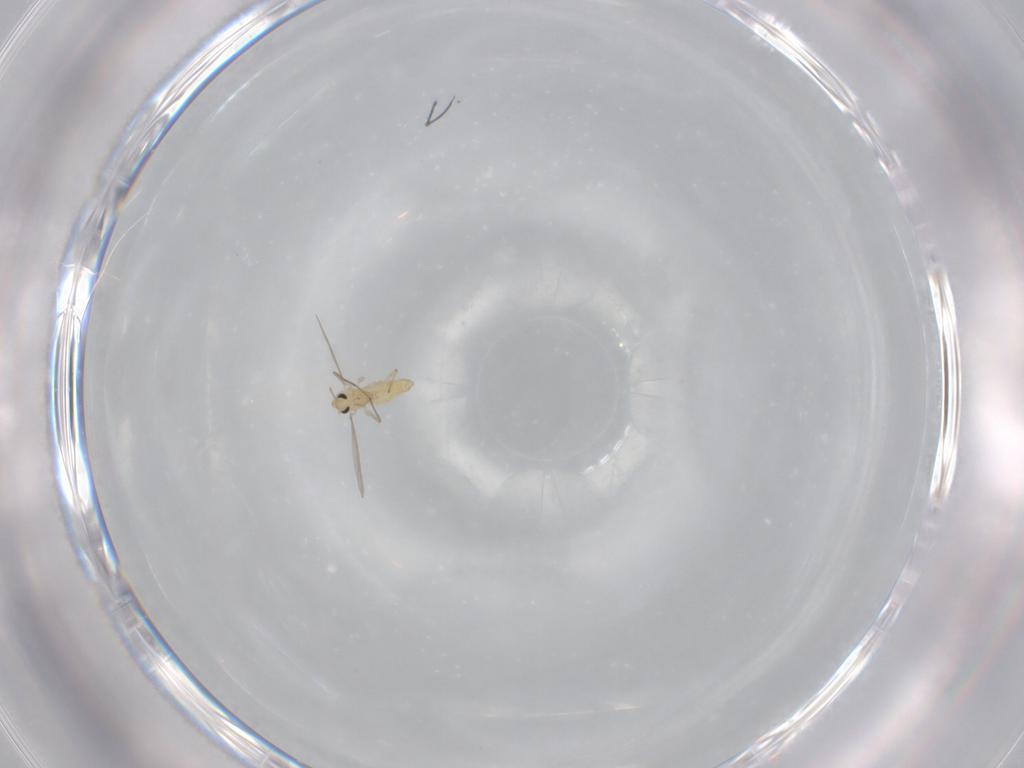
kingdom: Animalia
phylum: Arthropoda
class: Insecta
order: Diptera
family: Chironomidae
